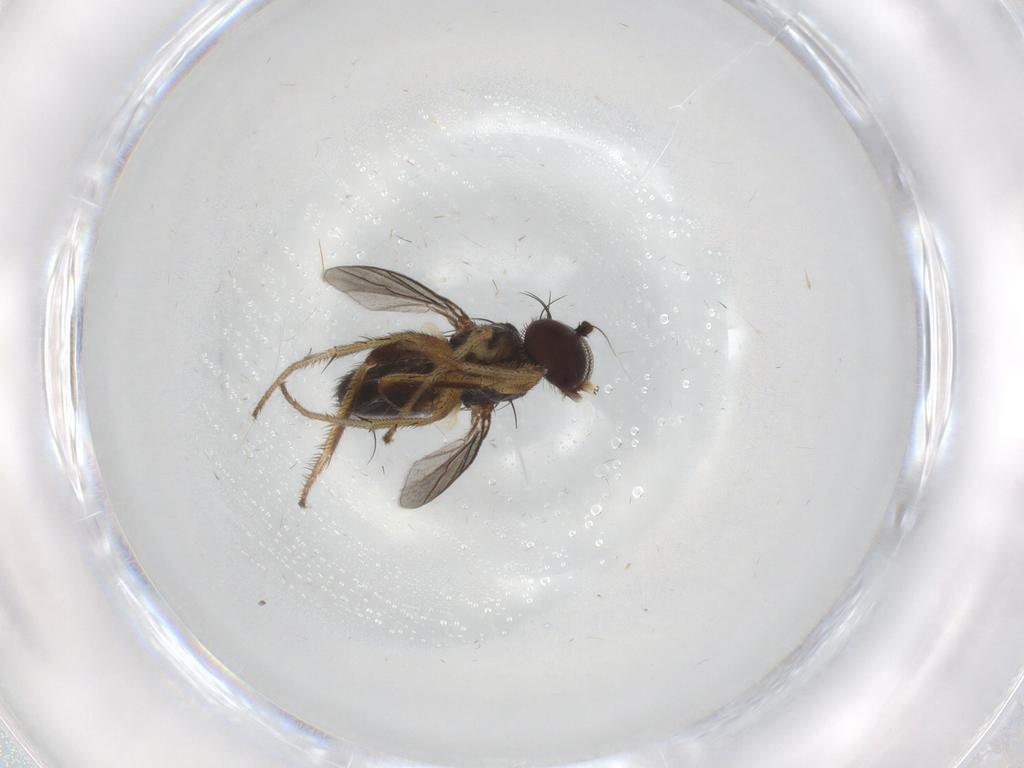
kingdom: Animalia
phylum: Arthropoda
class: Insecta
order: Diptera
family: Dolichopodidae
